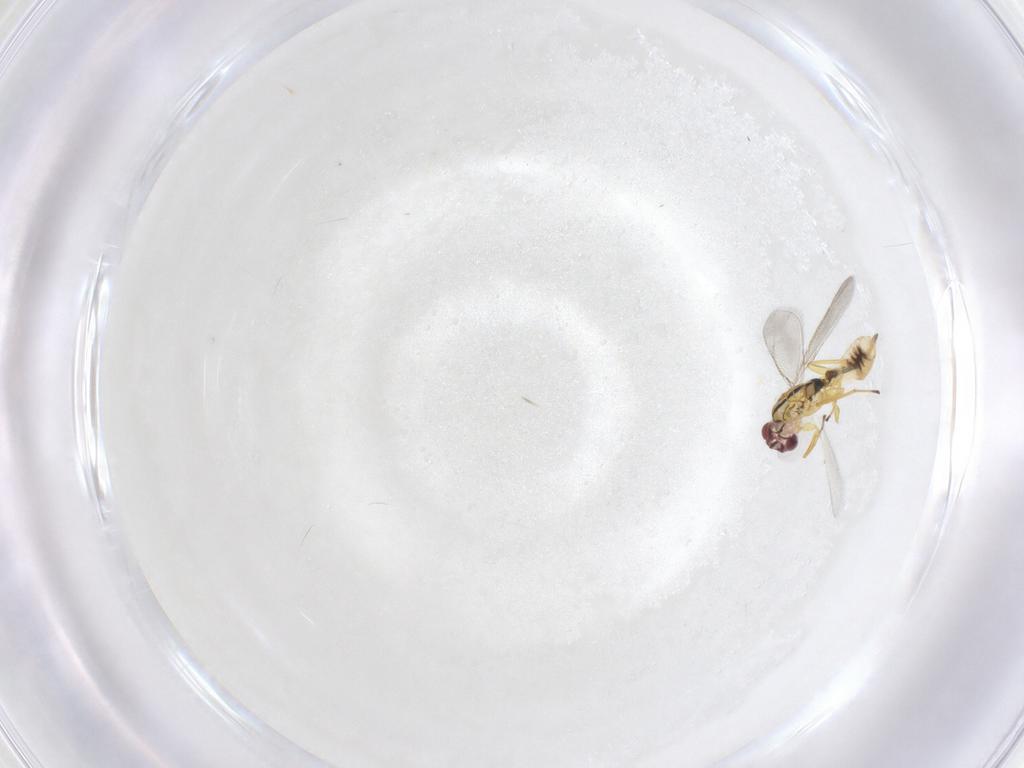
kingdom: Animalia
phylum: Arthropoda
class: Insecta
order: Hymenoptera
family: Eulophidae
